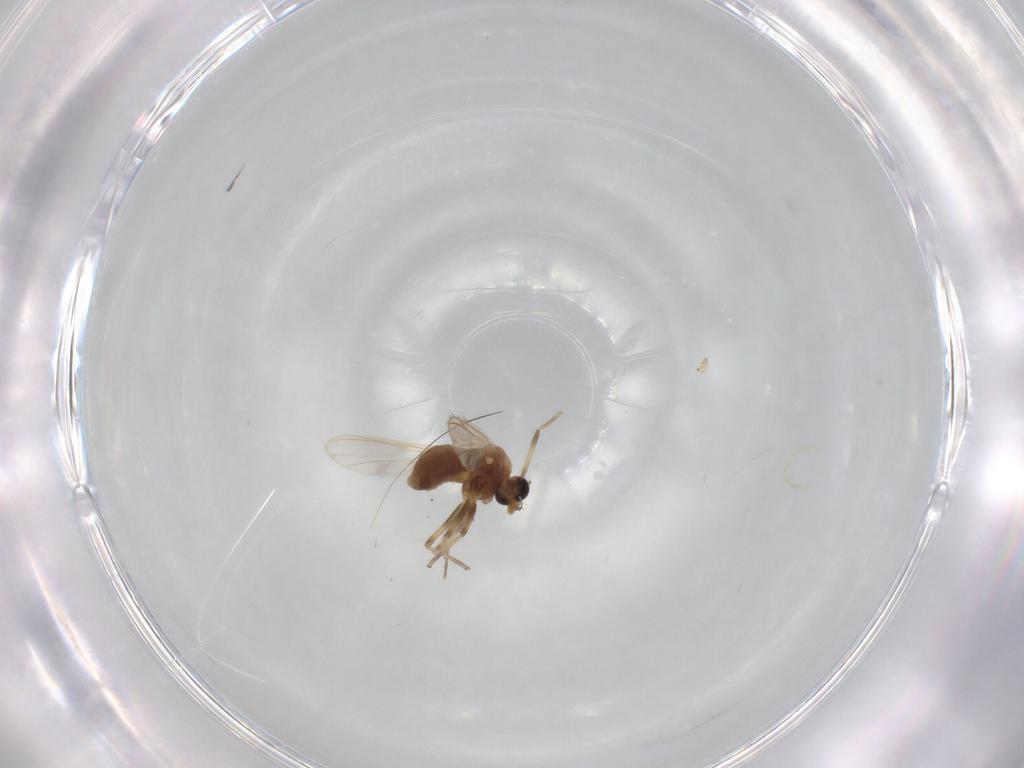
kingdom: Animalia
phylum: Arthropoda
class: Insecta
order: Diptera
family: Chironomidae
